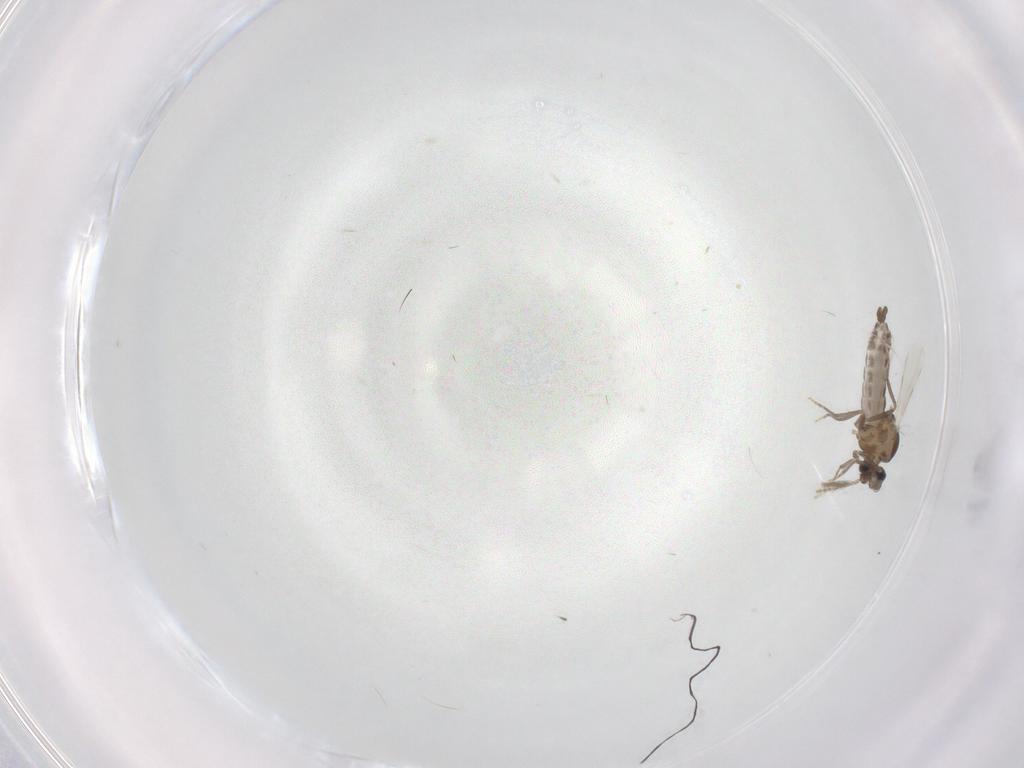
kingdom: Animalia
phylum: Arthropoda
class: Insecta
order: Diptera
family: Ceratopogonidae
